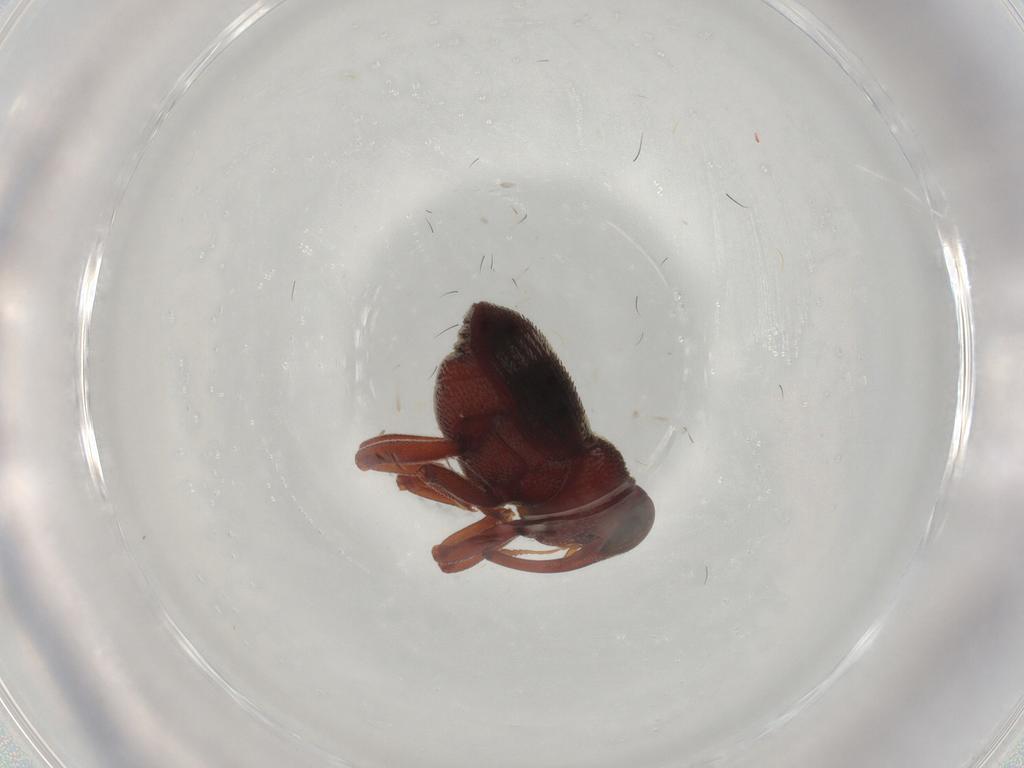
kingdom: Animalia
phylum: Arthropoda
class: Insecta
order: Coleoptera
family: Curculionidae
